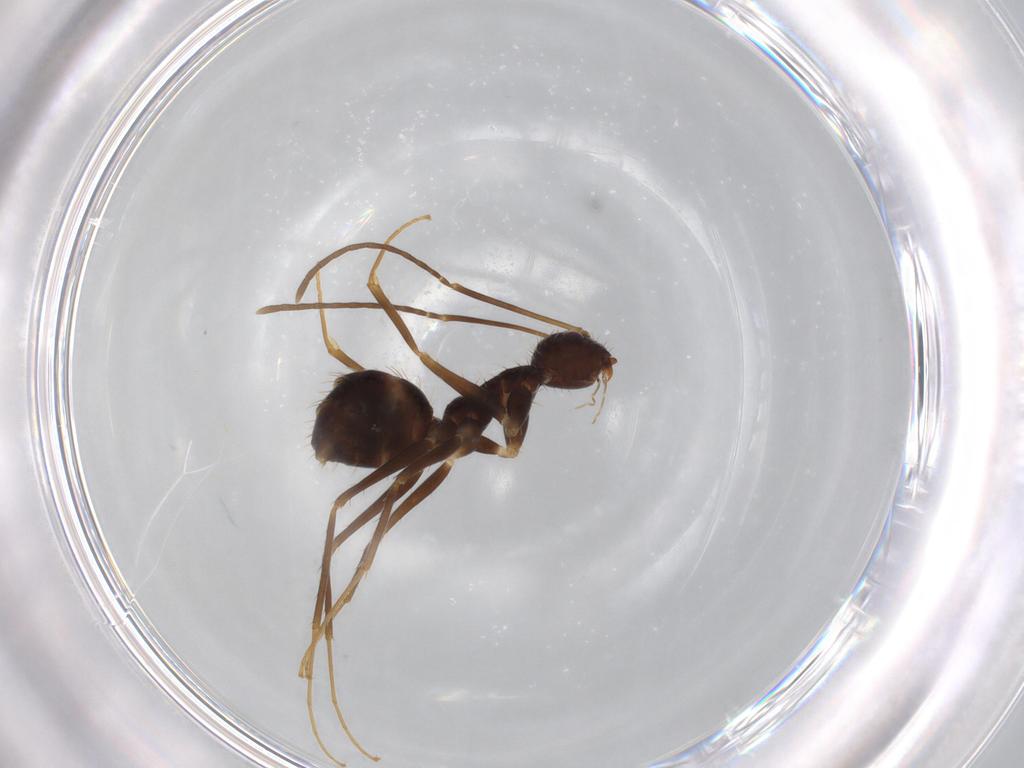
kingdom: Animalia
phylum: Arthropoda
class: Insecta
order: Hymenoptera
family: Formicidae
